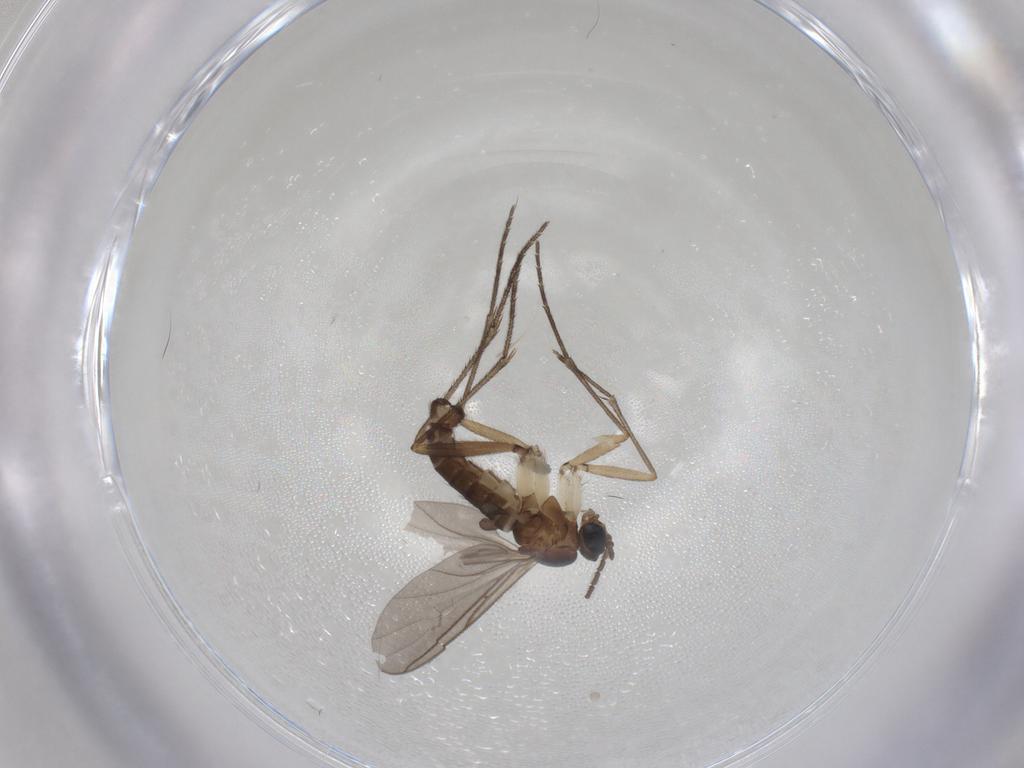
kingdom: Animalia
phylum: Arthropoda
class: Insecta
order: Diptera
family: Sciaridae
